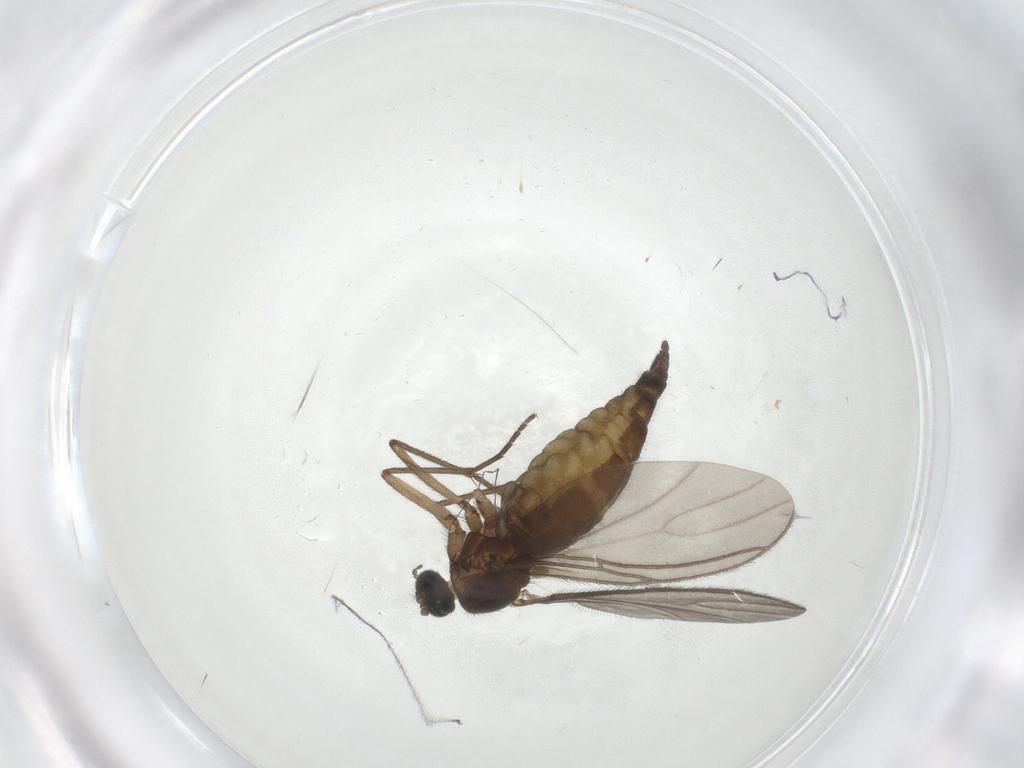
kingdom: Animalia
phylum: Arthropoda
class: Insecta
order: Diptera
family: Sciaridae
